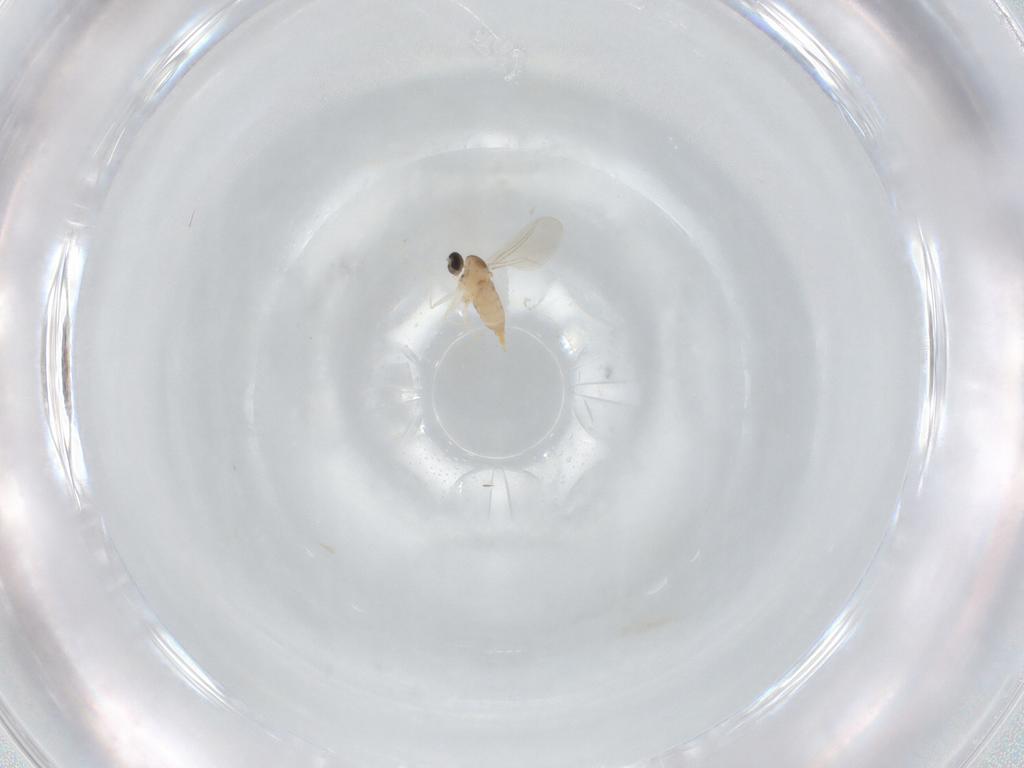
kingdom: Animalia
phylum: Arthropoda
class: Insecta
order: Diptera
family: Cecidomyiidae
